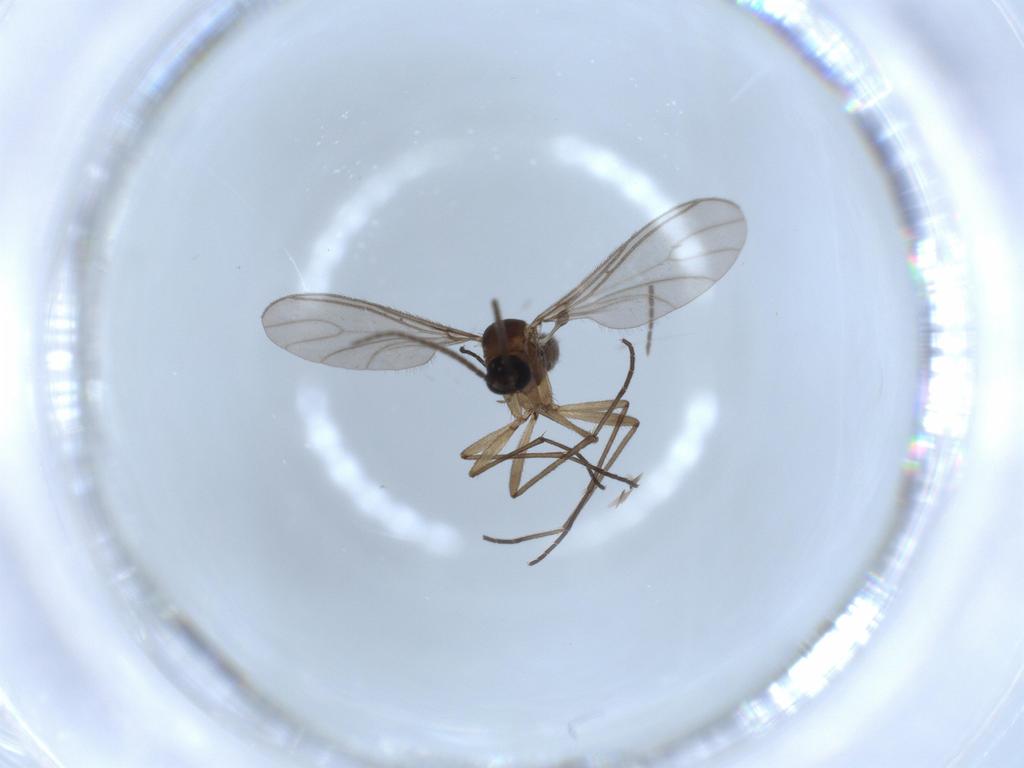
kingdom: Animalia
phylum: Arthropoda
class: Insecta
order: Diptera
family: Sciaridae
